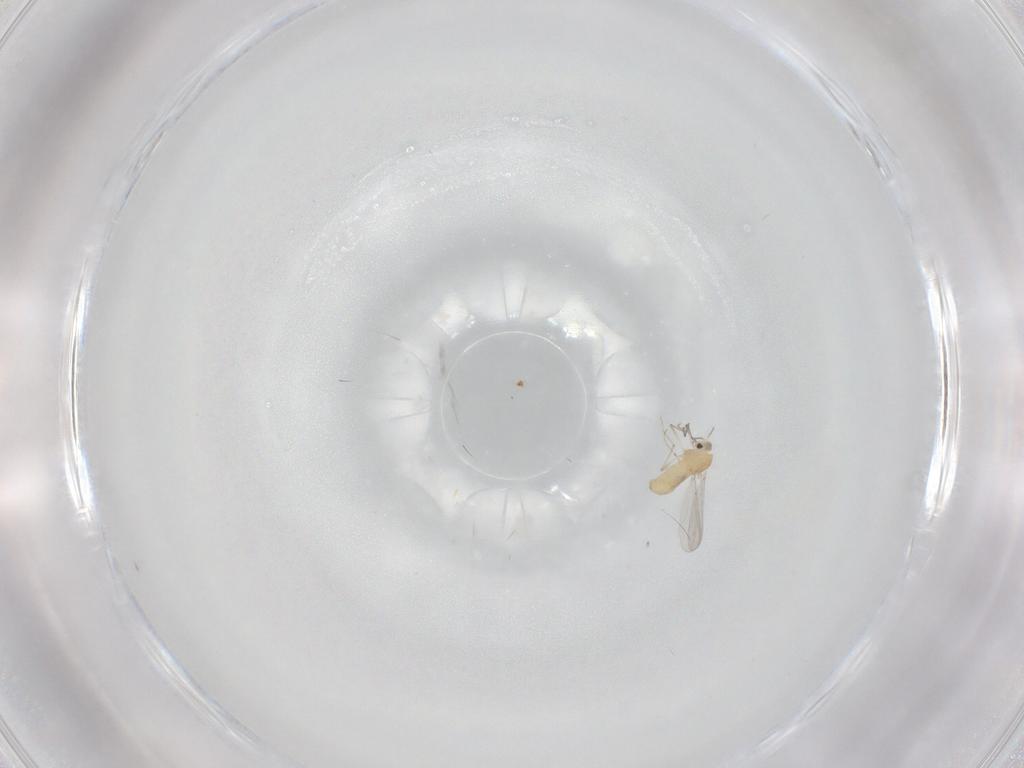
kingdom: Animalia
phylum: Arthropoda
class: Insecta
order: Diptera
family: Chironomidae
